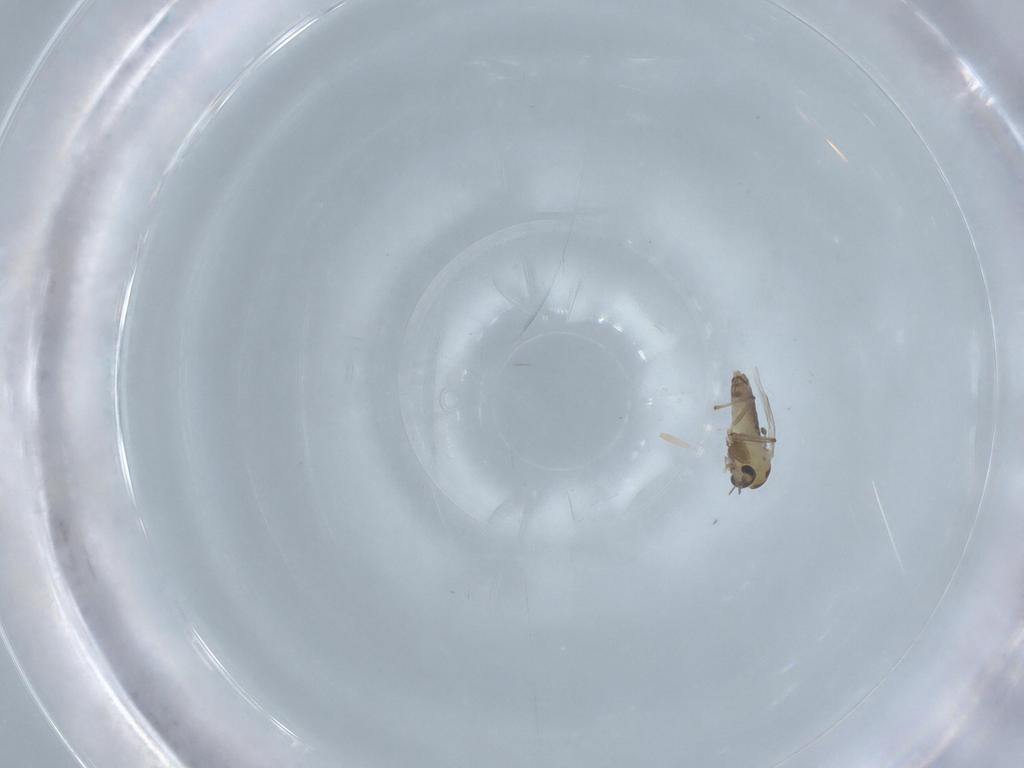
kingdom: Animalia
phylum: Arthropoda
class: Insecta
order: Diptera
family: Chironomidae
